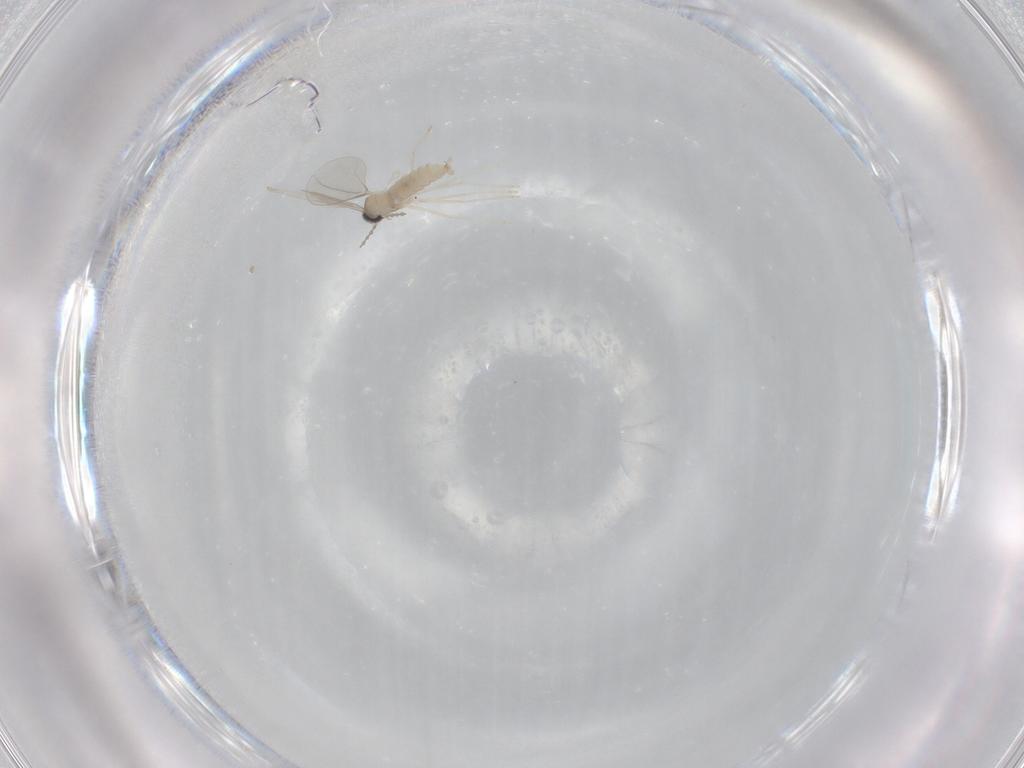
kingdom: Animalia
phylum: Arthropoda
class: Insecta
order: Diptera
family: Cecidomyiidae
